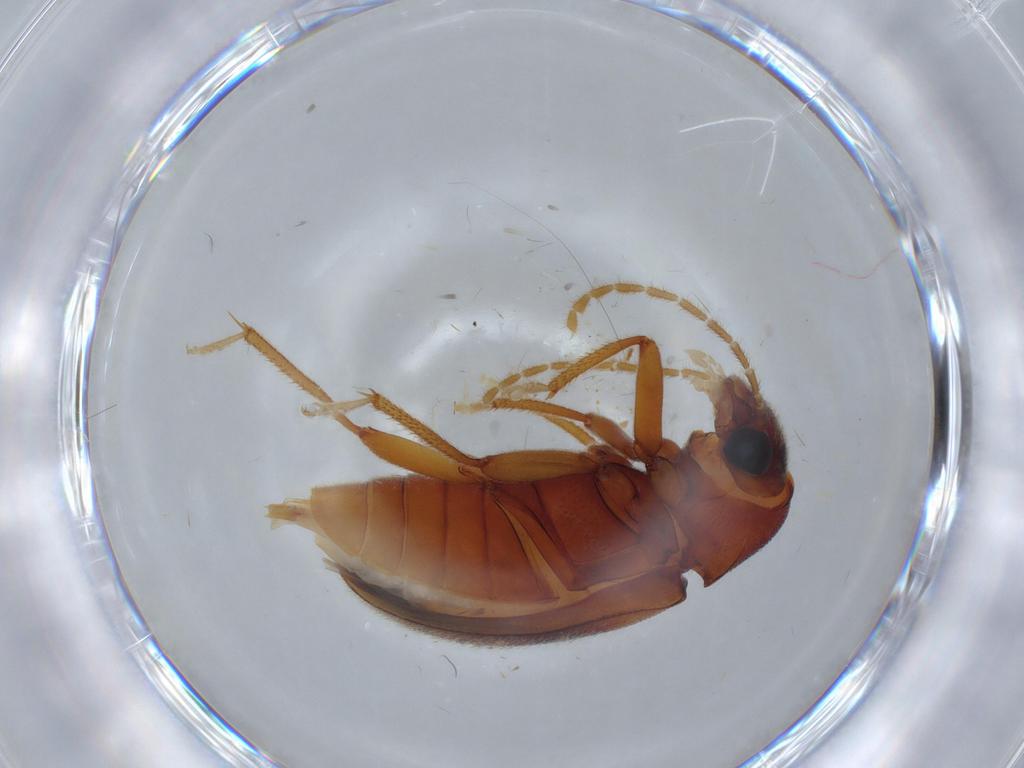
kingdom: Animalia
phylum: Arthropoda
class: Insecta
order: Coleoptera
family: Ptilodactylidae
